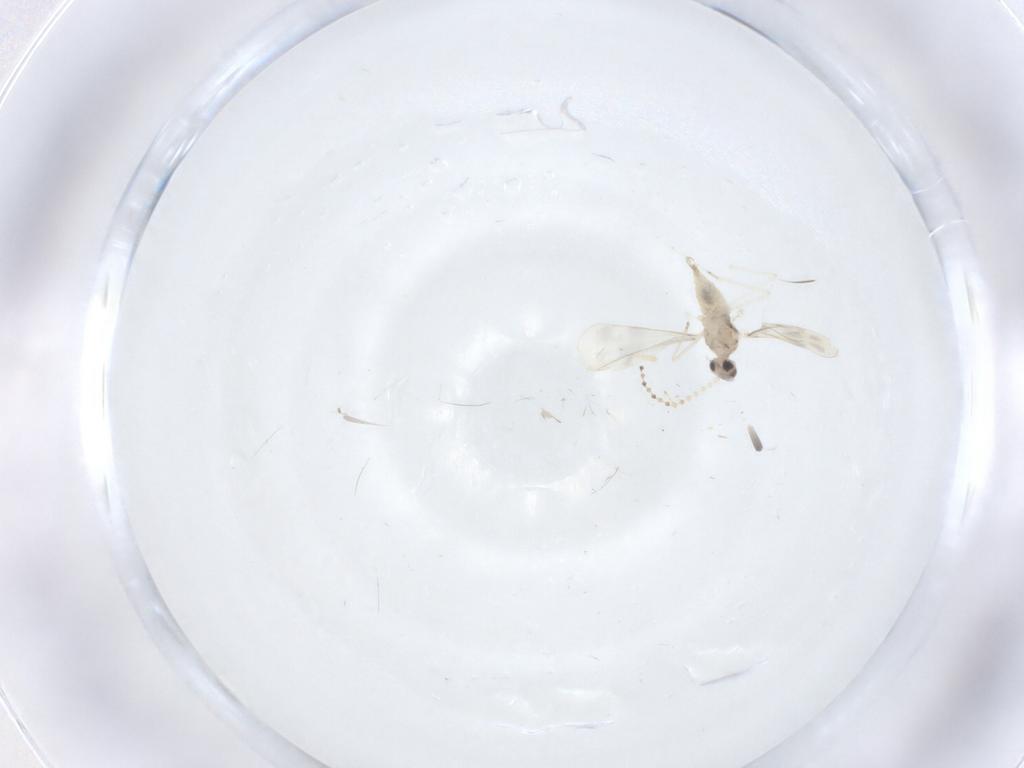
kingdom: Animalia
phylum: Arthropoda
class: Insecta
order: Diptera
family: Cecidomyiidae
